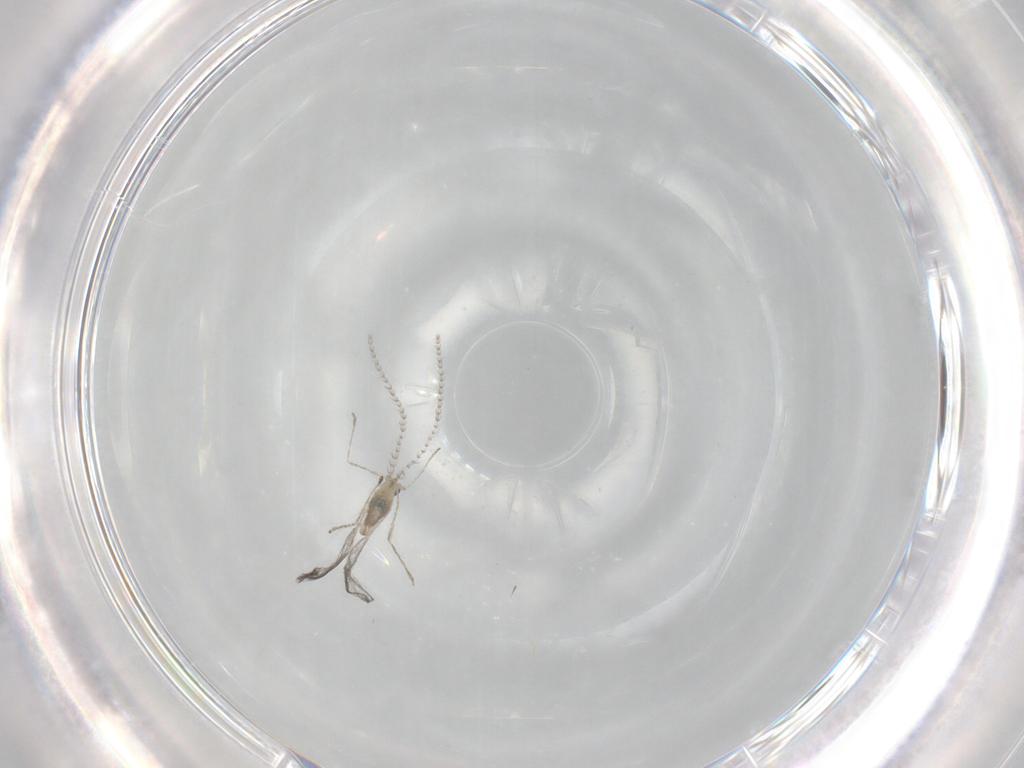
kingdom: Animalia
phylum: Arthropoda
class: Insecta
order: Diptera
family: Cecidomyiidae
